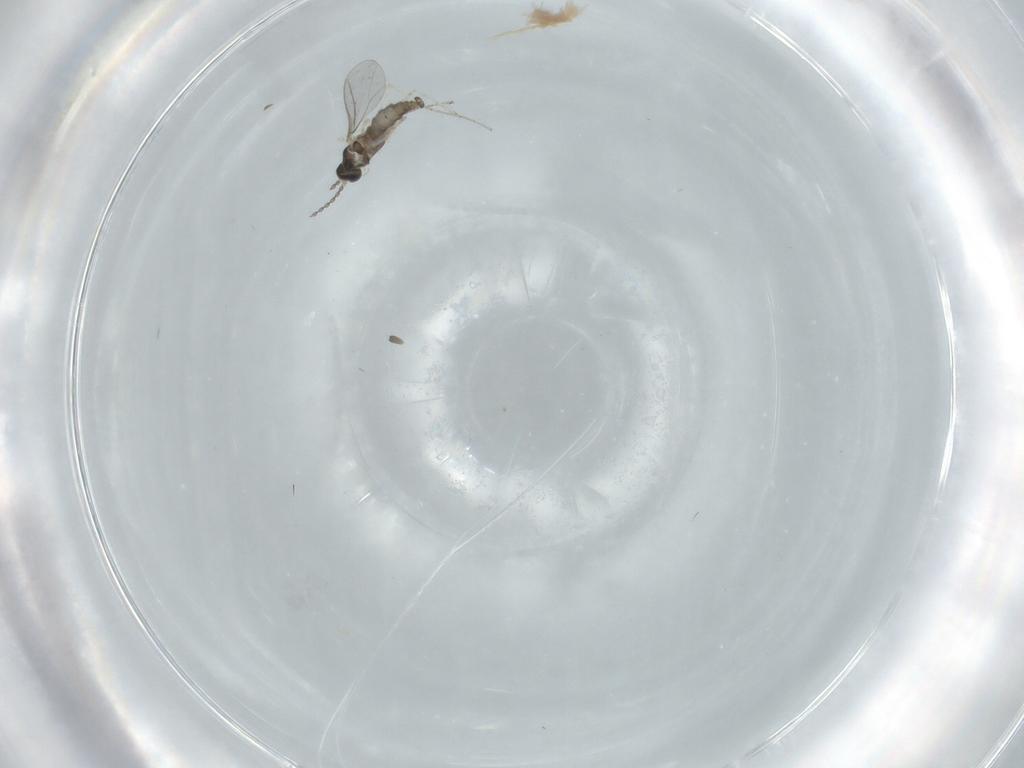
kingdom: Animalia
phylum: Arthropoda
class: Insecta
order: Diptera
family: Cecidomyiidae
